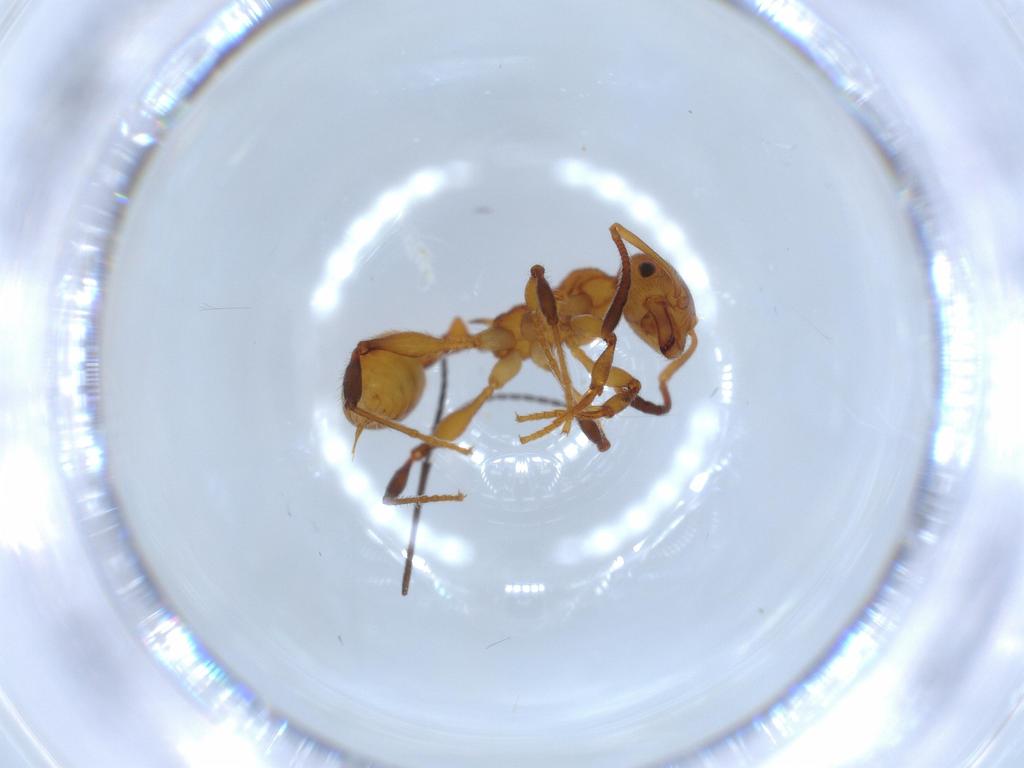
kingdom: Animalia
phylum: Arthropoda
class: Insecta
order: Hymenoptera
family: Formicidae
